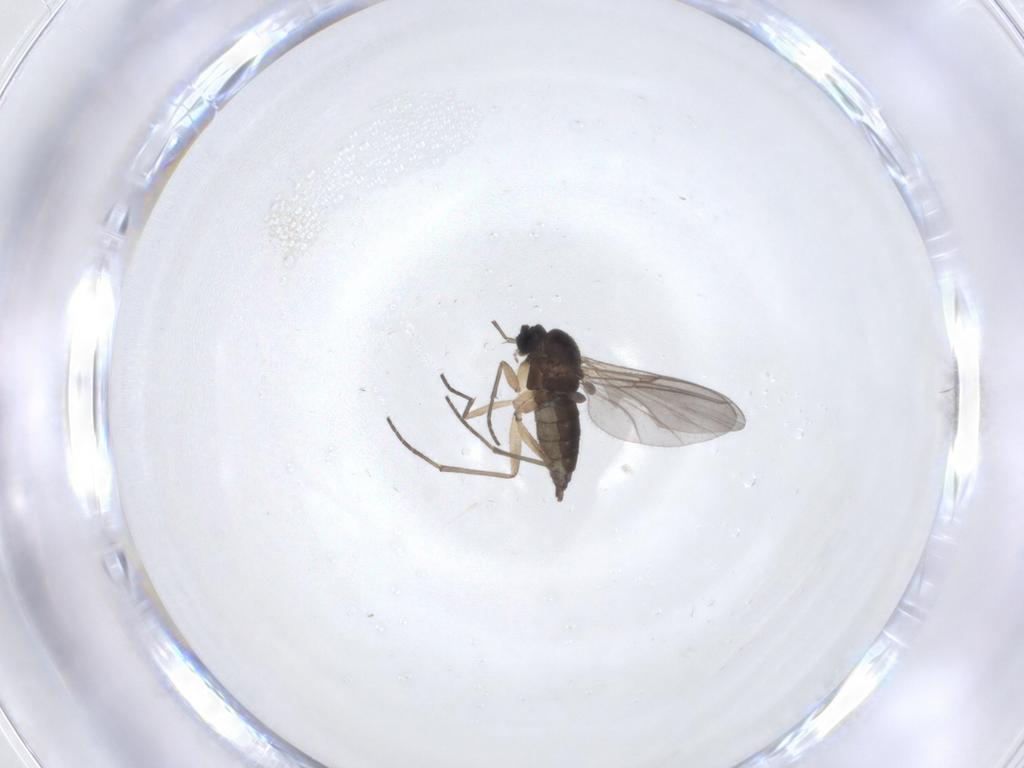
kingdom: Animalia
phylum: Arthropoda
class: Insecta
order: Diptera
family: Sciaridae
